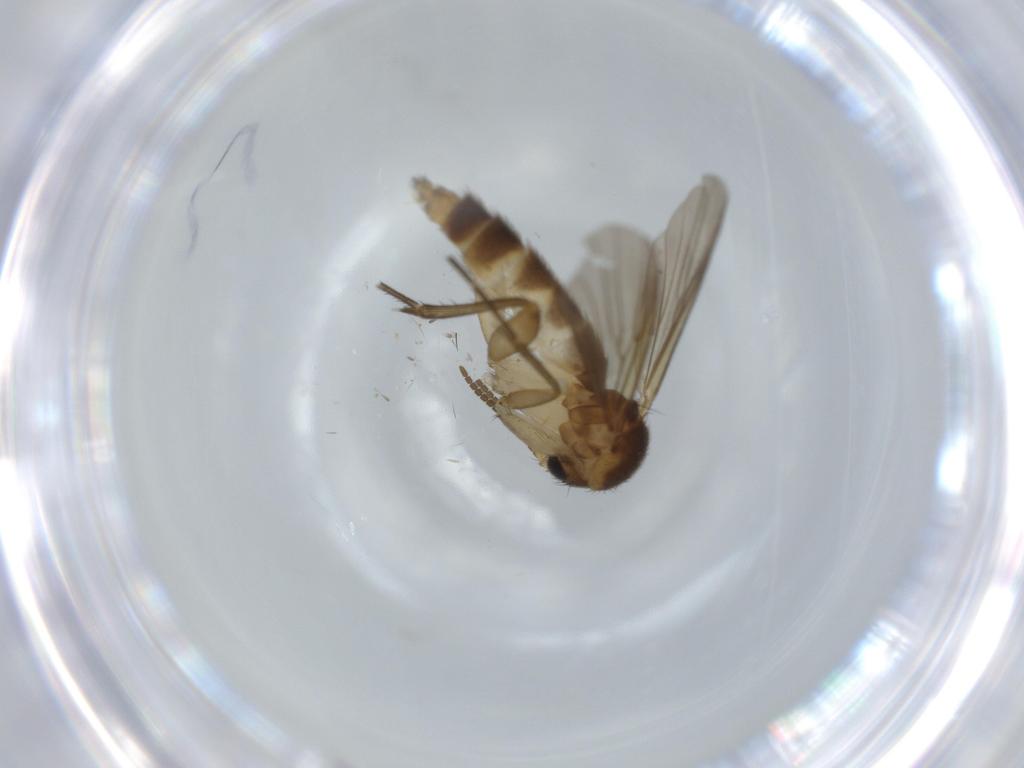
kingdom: Animalia
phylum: Arthropoda
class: Insecta
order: Diptera
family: Mycetophilidae
